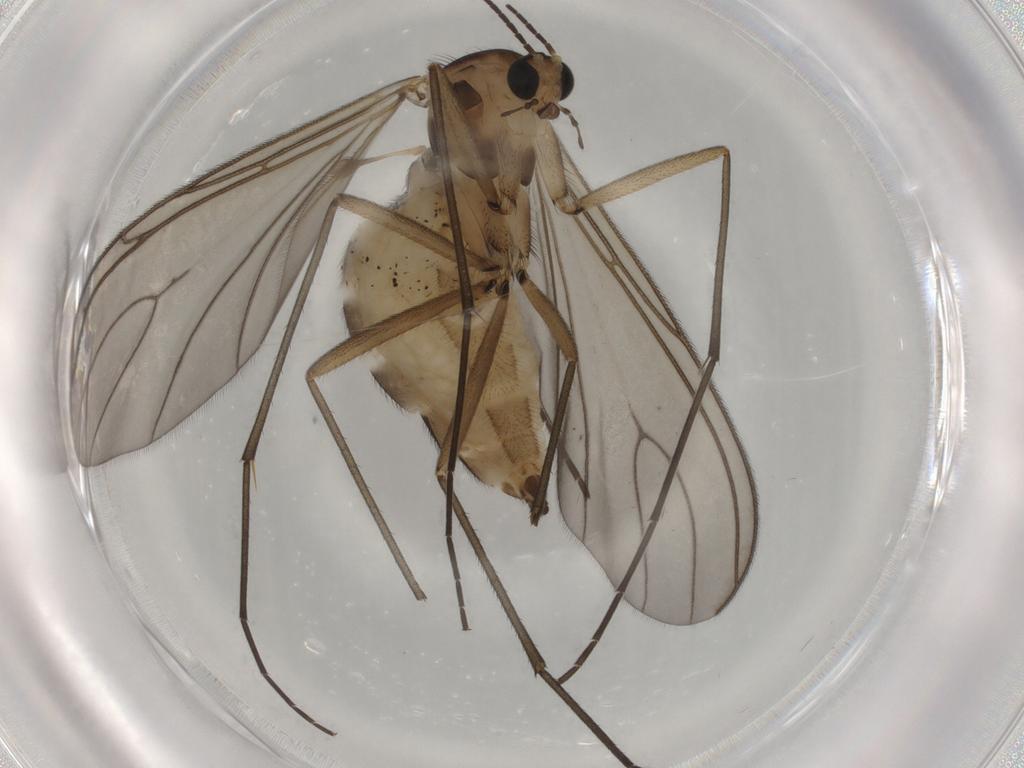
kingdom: Animalia
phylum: Arthropoda
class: Insecta
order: Diptera
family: Sciaridae
